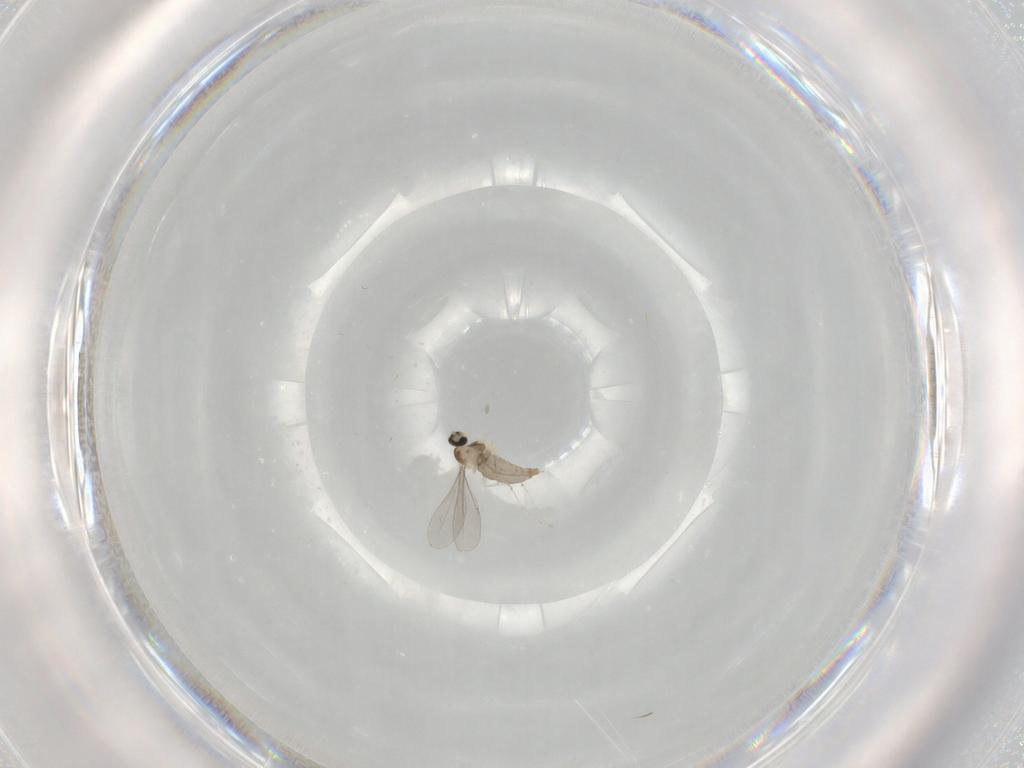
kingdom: Animalia
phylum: Arthropoda
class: Insecta
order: Diptera
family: Cecidomyiidae
